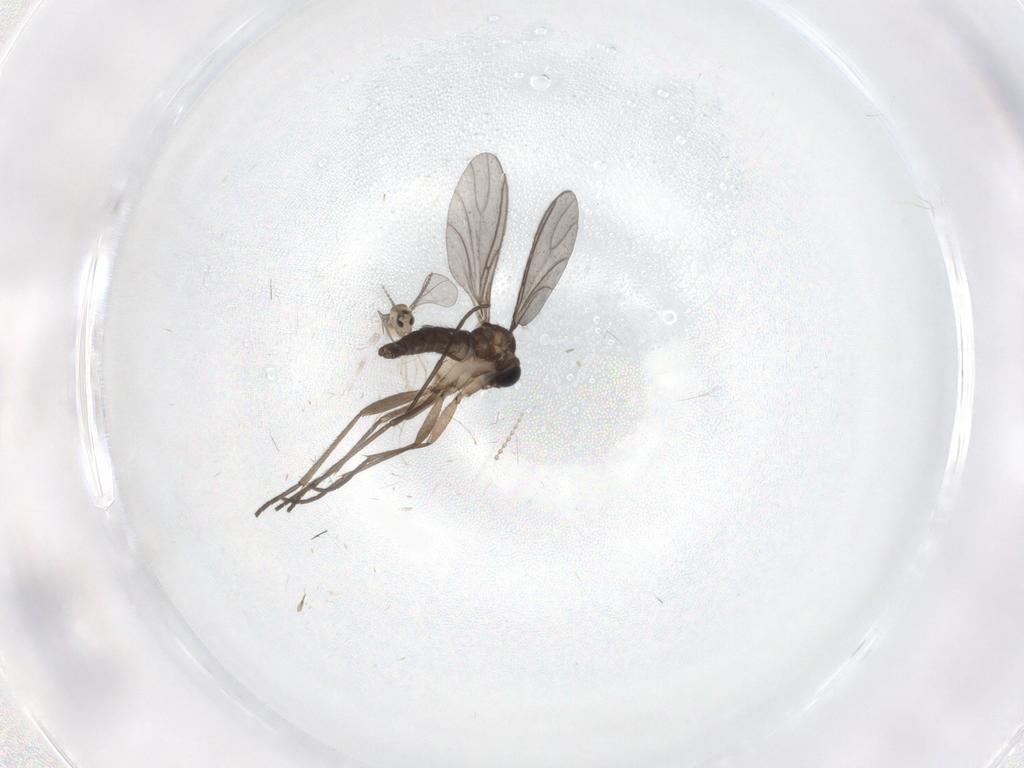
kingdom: Animalia
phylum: Arthropoda
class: Insecta
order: Diptera
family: Sciaridae
